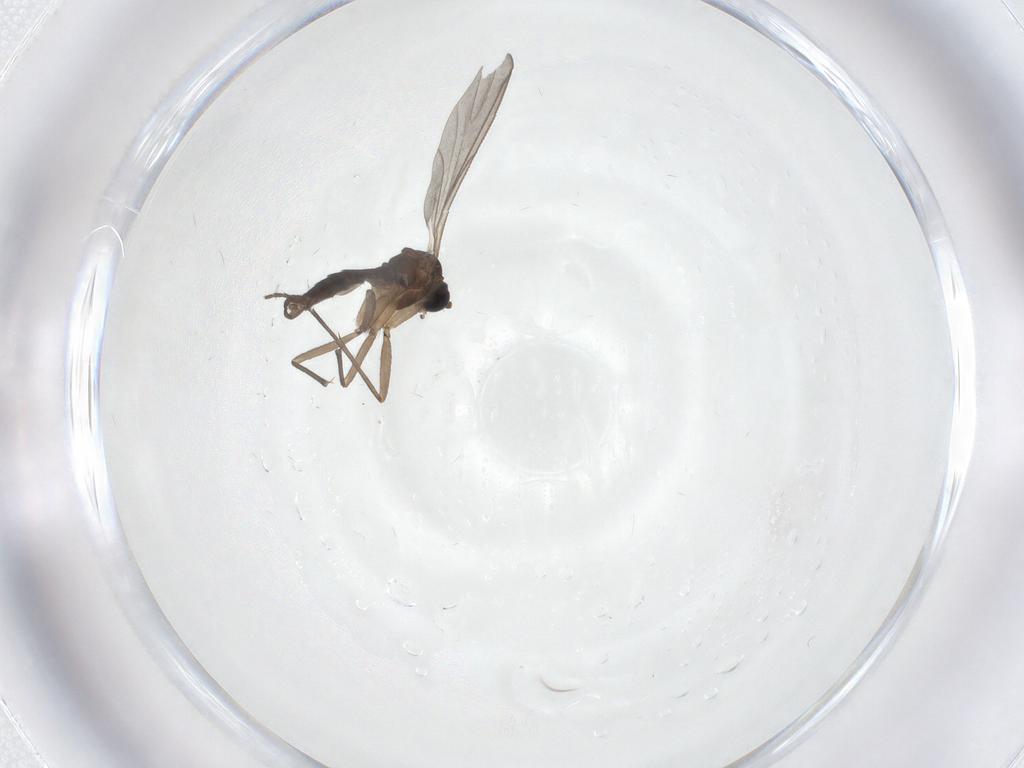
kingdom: Animalia
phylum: Arthropoda
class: Insecta
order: Diptera
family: Sciaridae
